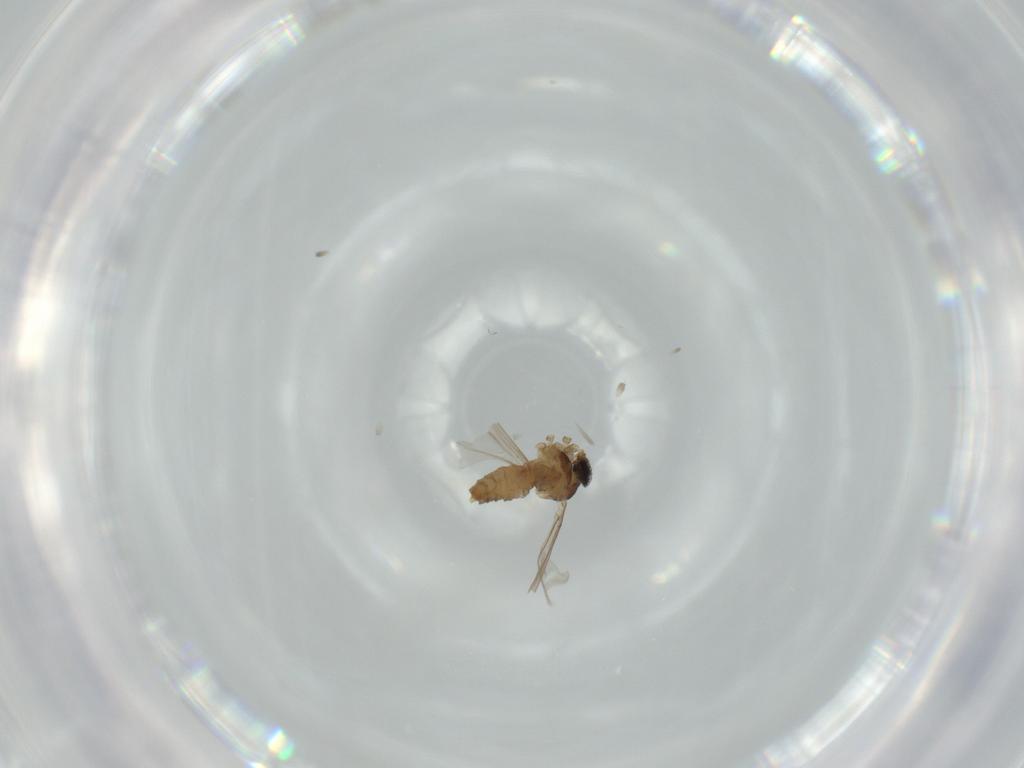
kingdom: Animalia
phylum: Arthropoda
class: Insecta
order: Diptera
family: Cecidomyiidae
